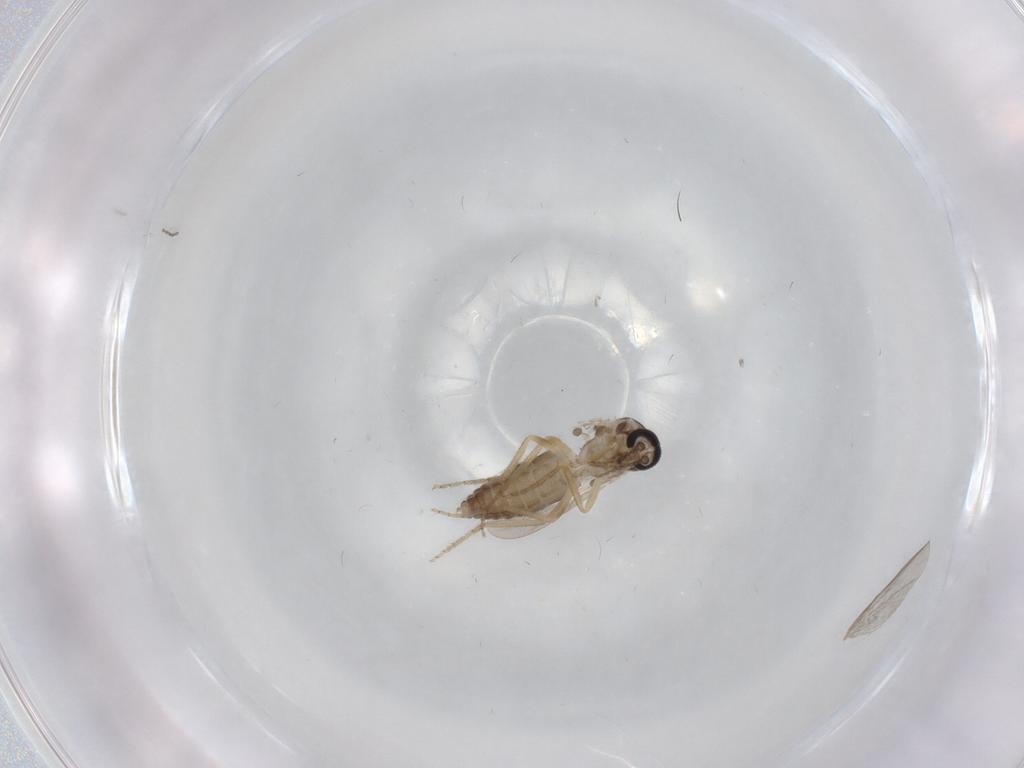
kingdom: Animalia
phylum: Arthropoda
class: Insecta
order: Diptera
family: Ceratopogonidae
